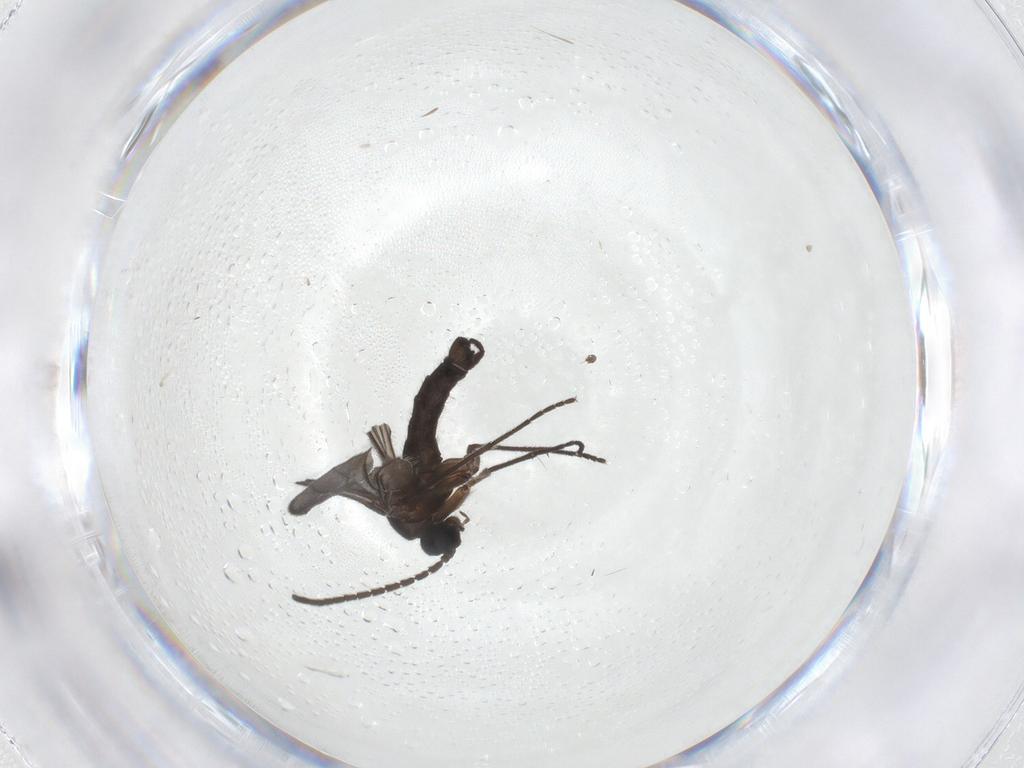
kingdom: Animalia
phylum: Arthropoda
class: Insecta
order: Diptera
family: Sciaridae
